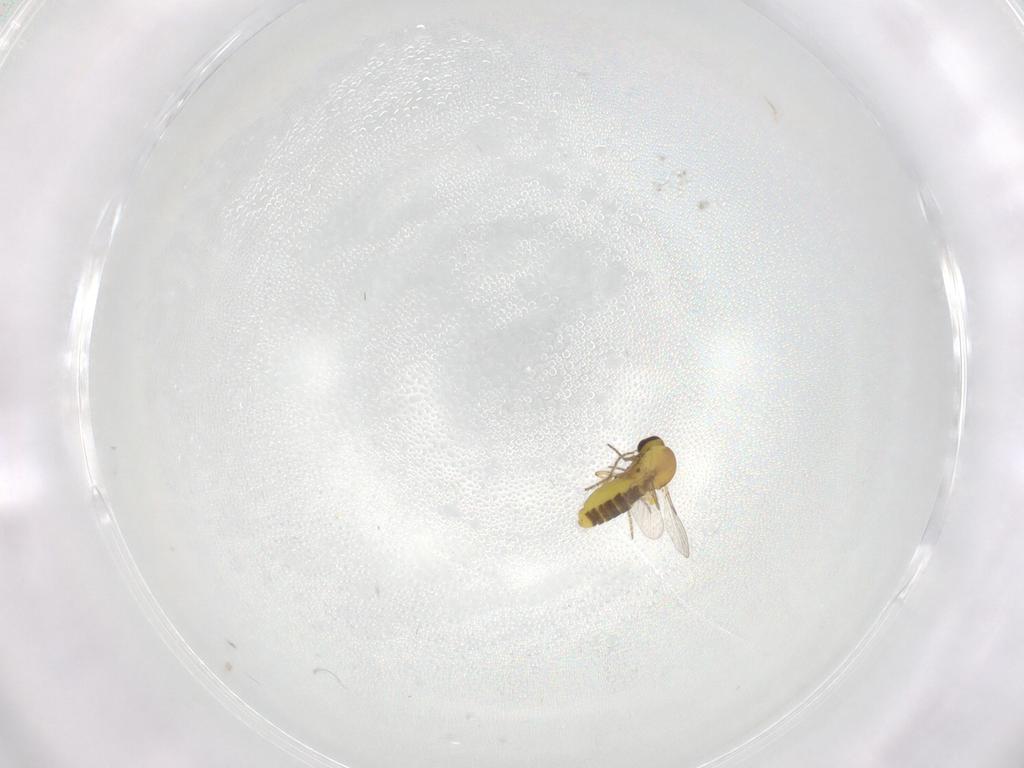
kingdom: Animalia
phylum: Arthropoda
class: Insecta
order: Diptera
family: Ceratopogonidae
